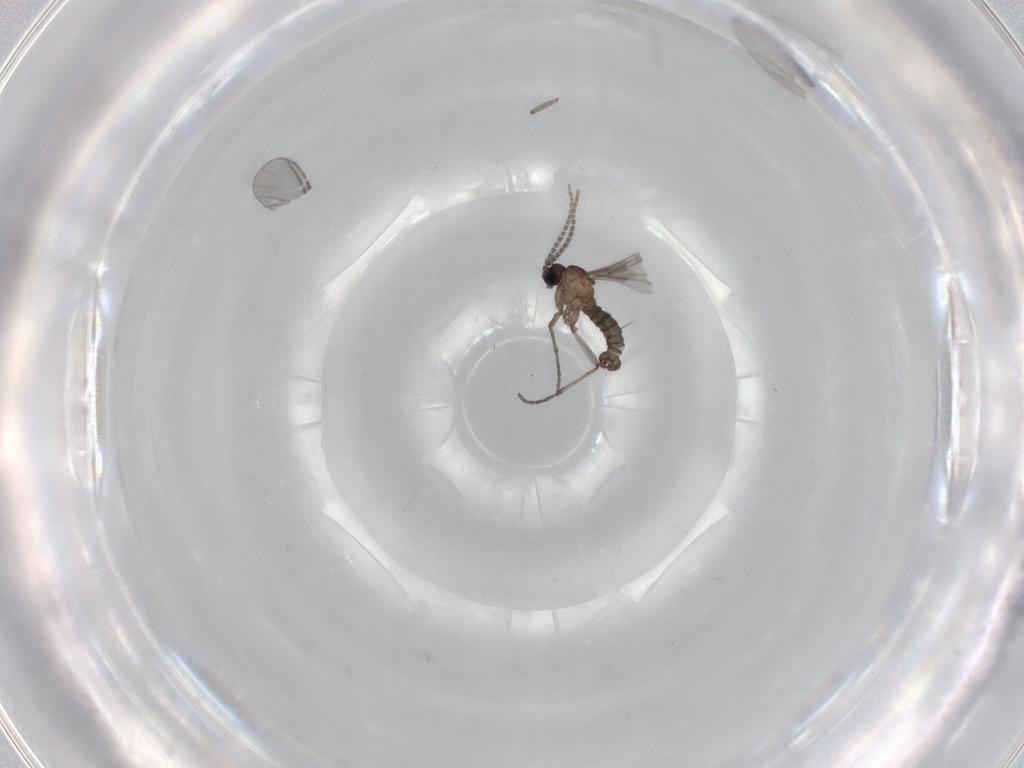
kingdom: Animalia
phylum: Arthropoda
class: Insecta
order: Diptera
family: Sciaridae
